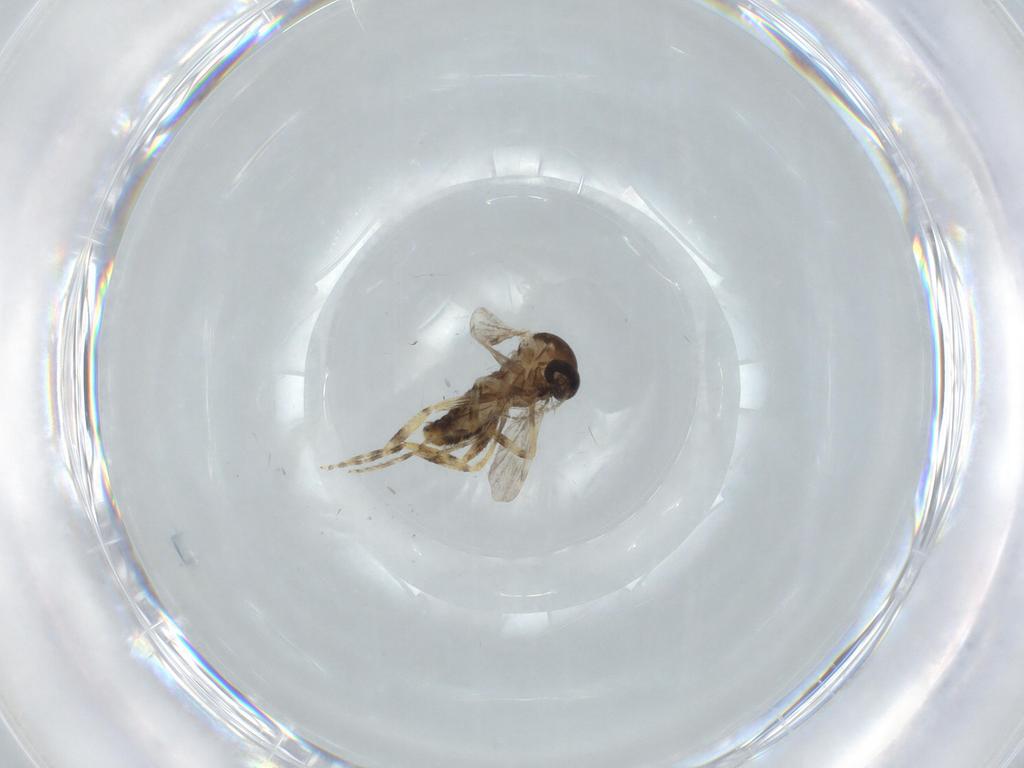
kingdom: Animalia
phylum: Arthropoda
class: Insecta
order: Diptera
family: Ceratopogonidae
